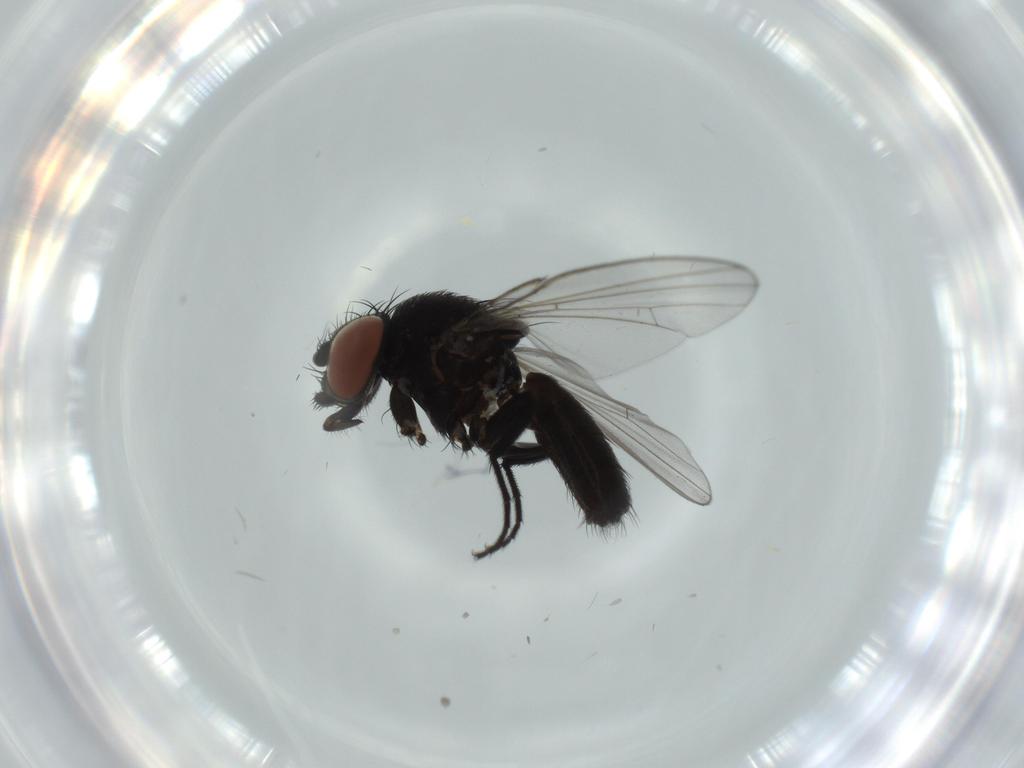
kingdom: Animalia
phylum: Arthropoda
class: Insecta
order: Diptera
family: Milichiidae
